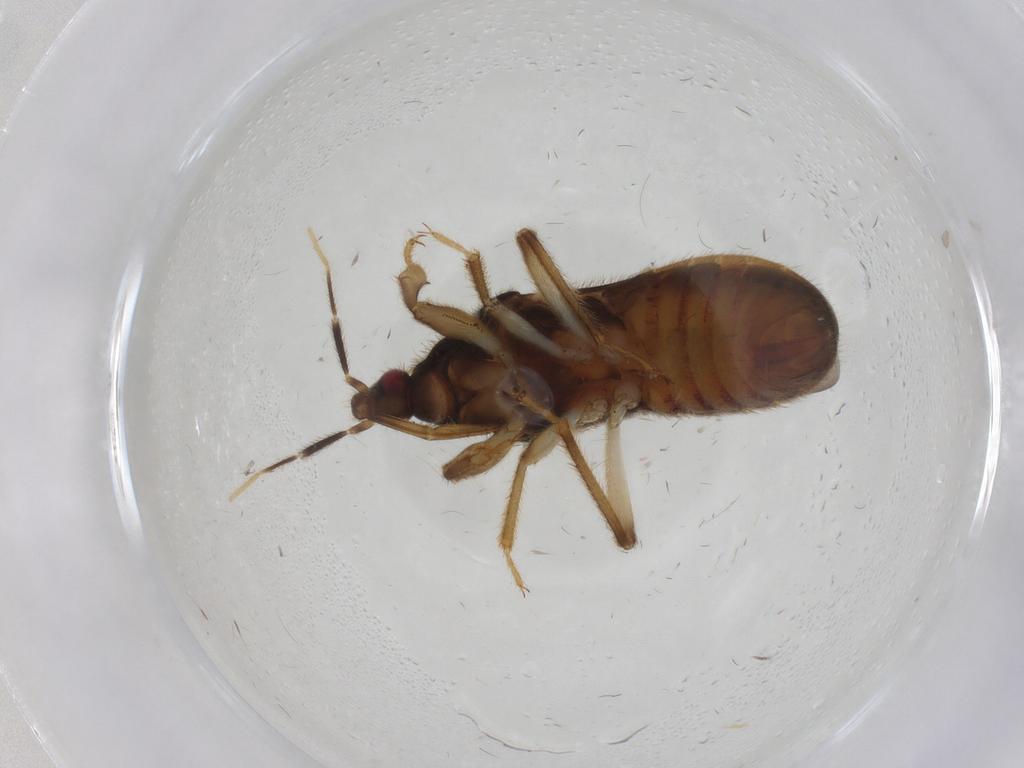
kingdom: Animalia
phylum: Arthropoda
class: Insecta
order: Hemiptera
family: Nabidae
